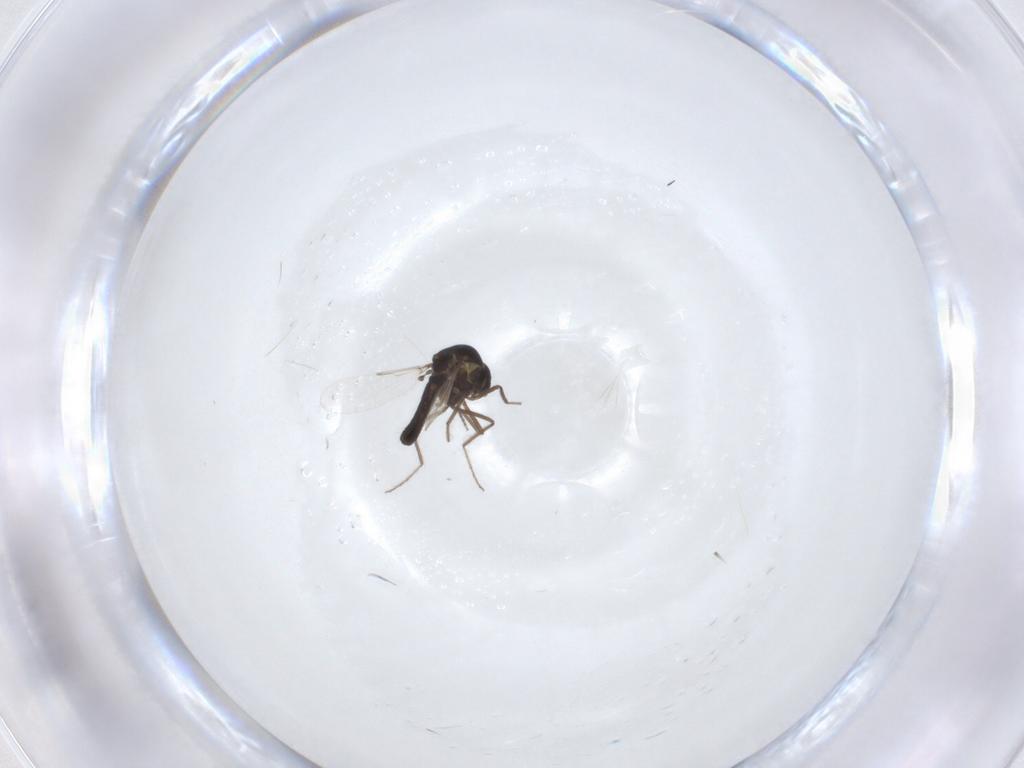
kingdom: Animalia
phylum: Arthropoda
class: Insecta
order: Diptera
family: Ceratopogonidae
